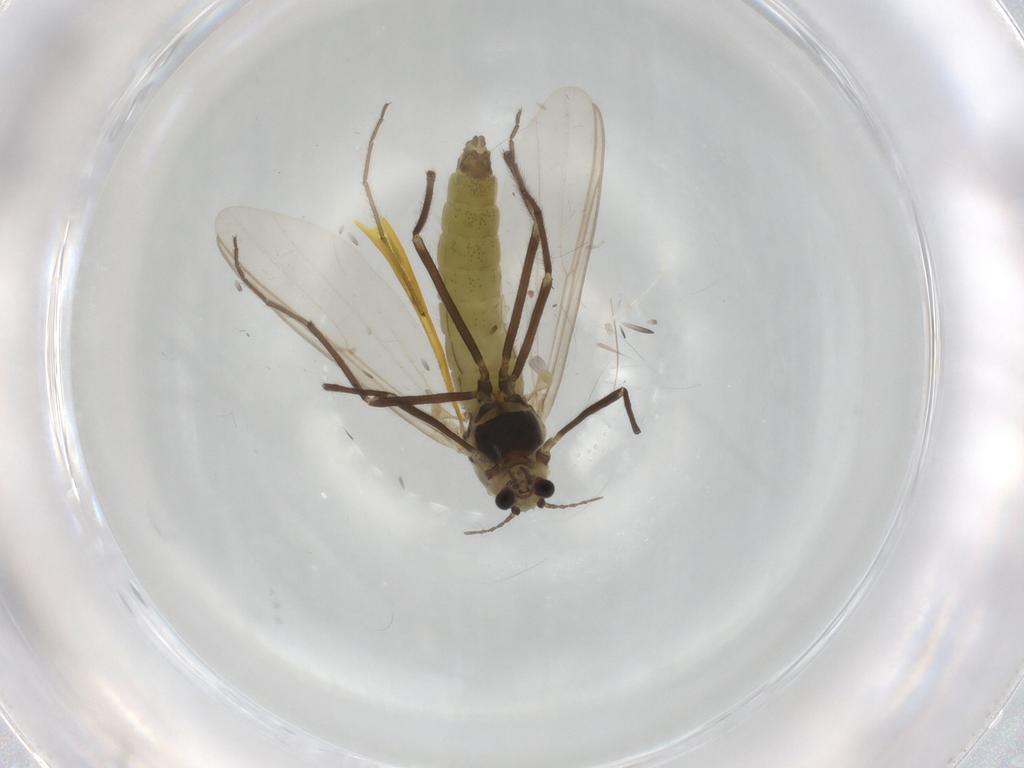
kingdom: Animalia
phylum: Arthropoda
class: Insecta
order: Diptera
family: Chironomidae
